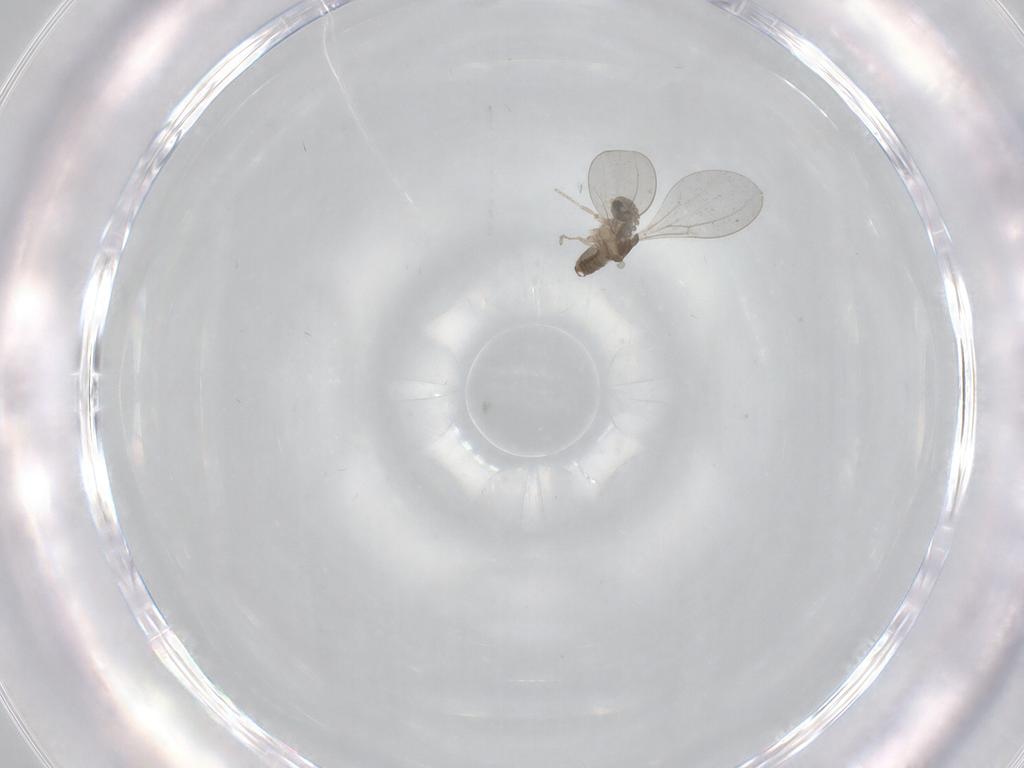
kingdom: Animalia
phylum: Arthropoda
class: Insecta
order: Diptera
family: Cecidomyiidae
